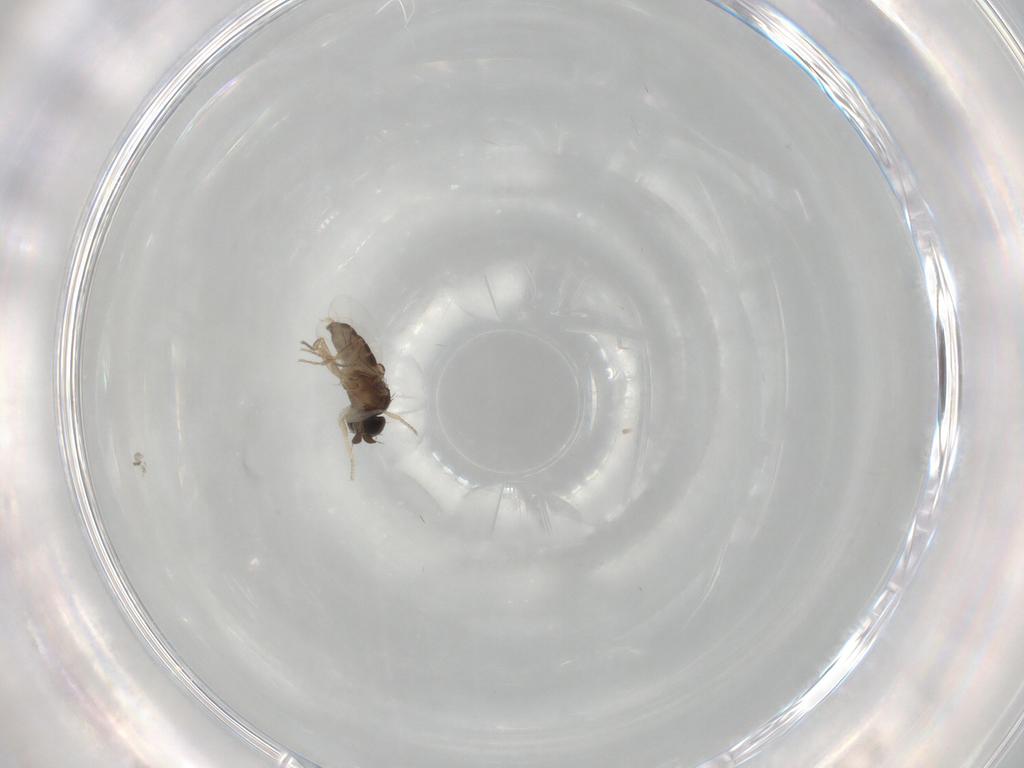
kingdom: Animalia
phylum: Arthropoda
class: Insecta
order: Diptera
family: Phoridae
